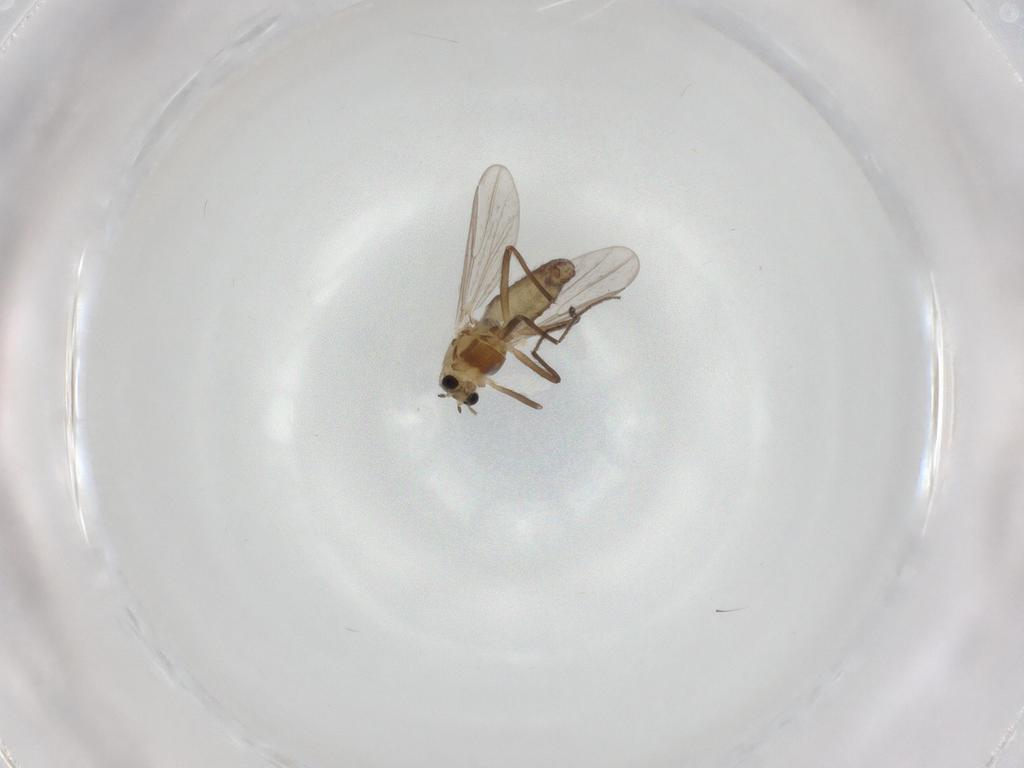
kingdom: Animalia
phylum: Arthropoda
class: Insecta
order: Diptera
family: Chironomidae
